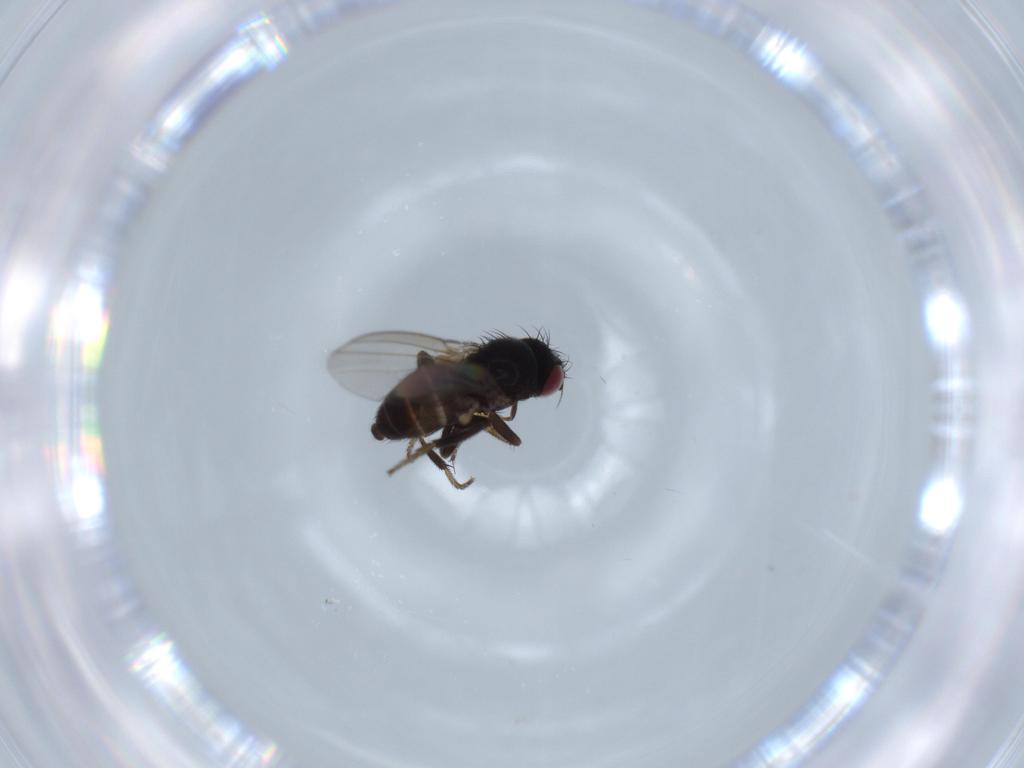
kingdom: Animalia
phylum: Arthropoda
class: Insecta
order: Diptera
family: Milichiidae
